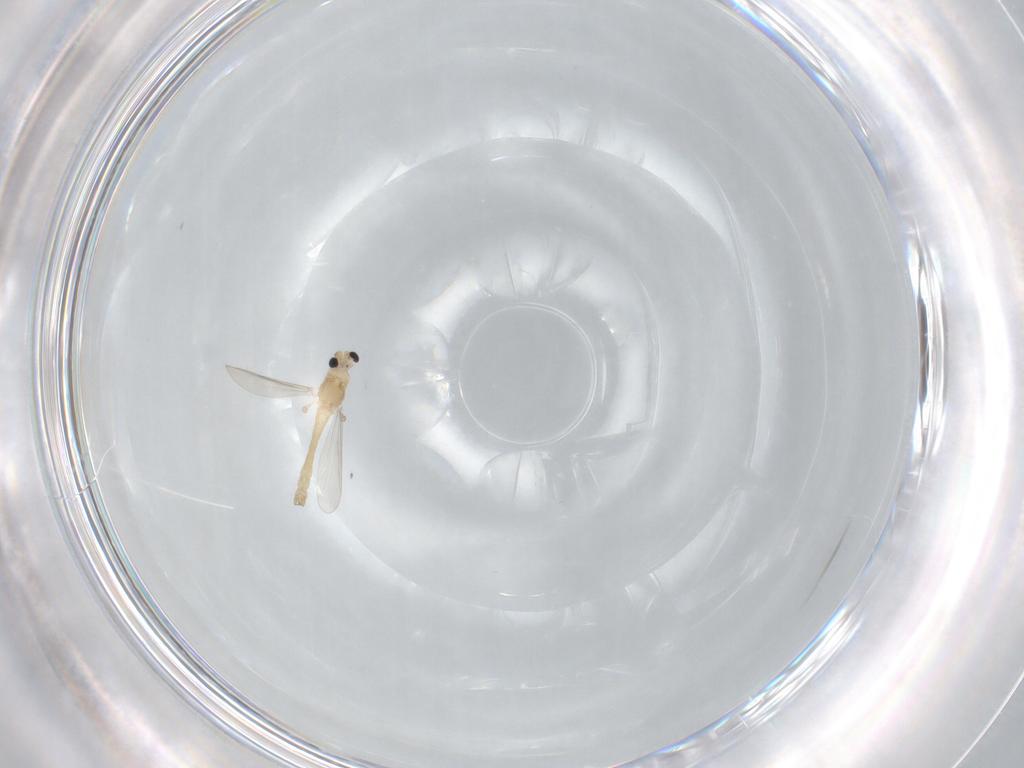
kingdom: Animalia
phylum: Arthropoda
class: Insecta
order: Diptera
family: Chironomidae
